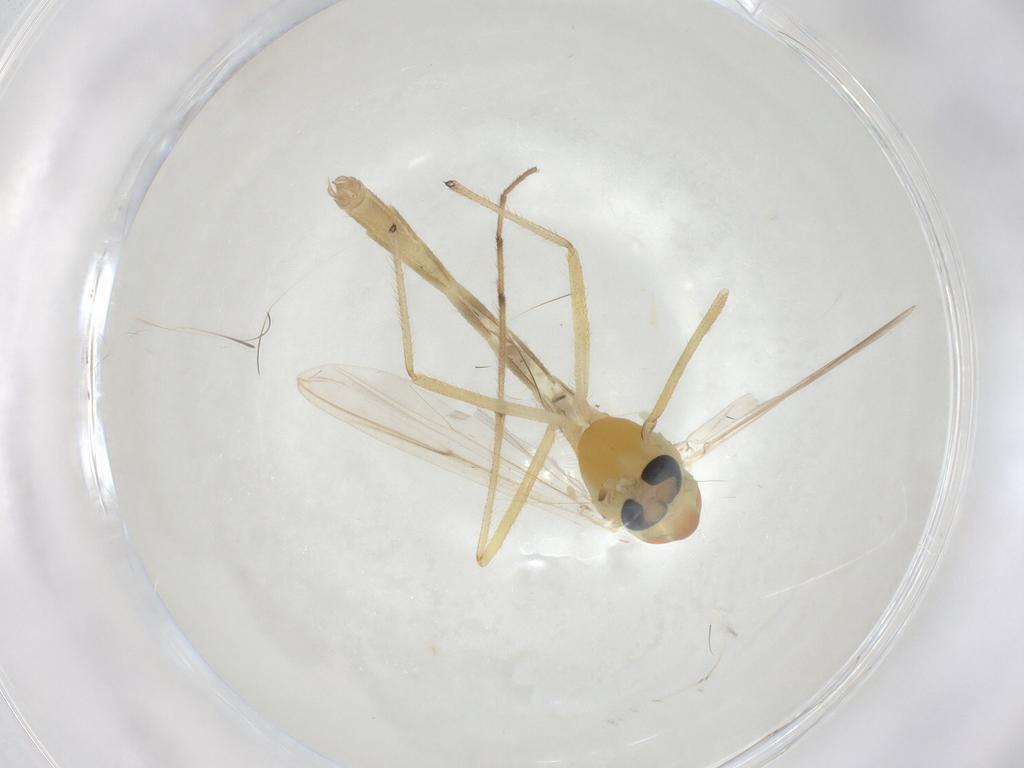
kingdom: Animalia
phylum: Arthropoda
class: Insecta
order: Diptera
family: Chironomidae
